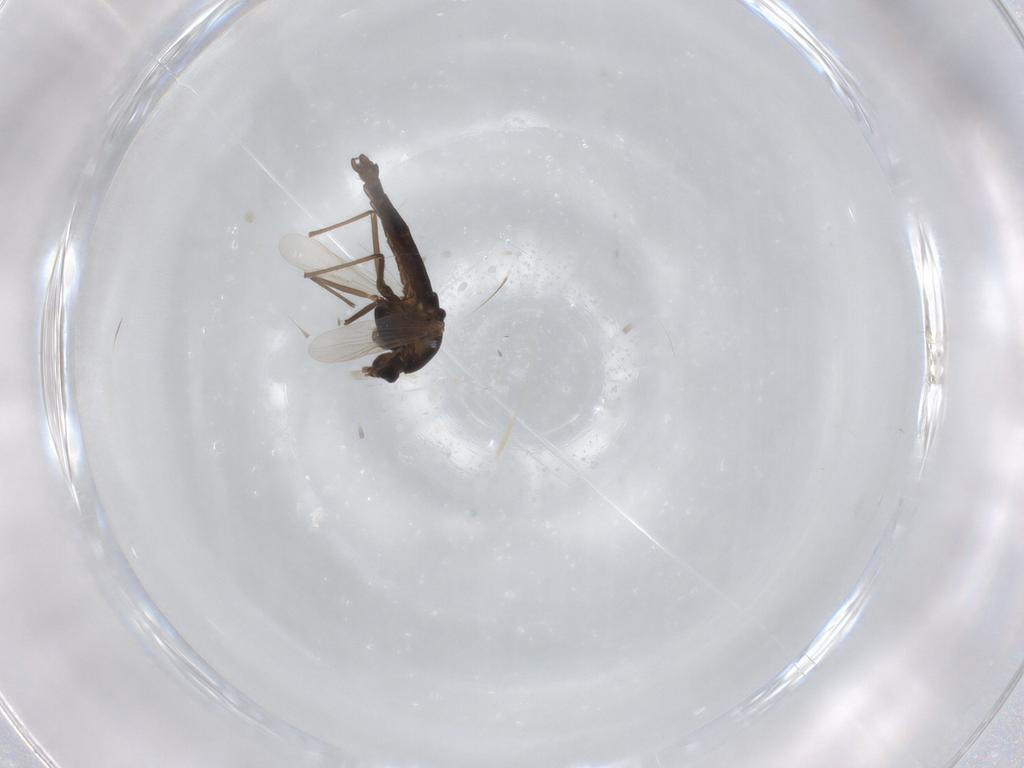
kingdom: Animalia
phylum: Arthropoda
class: Insecta
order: Diptera
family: Chironomidae
